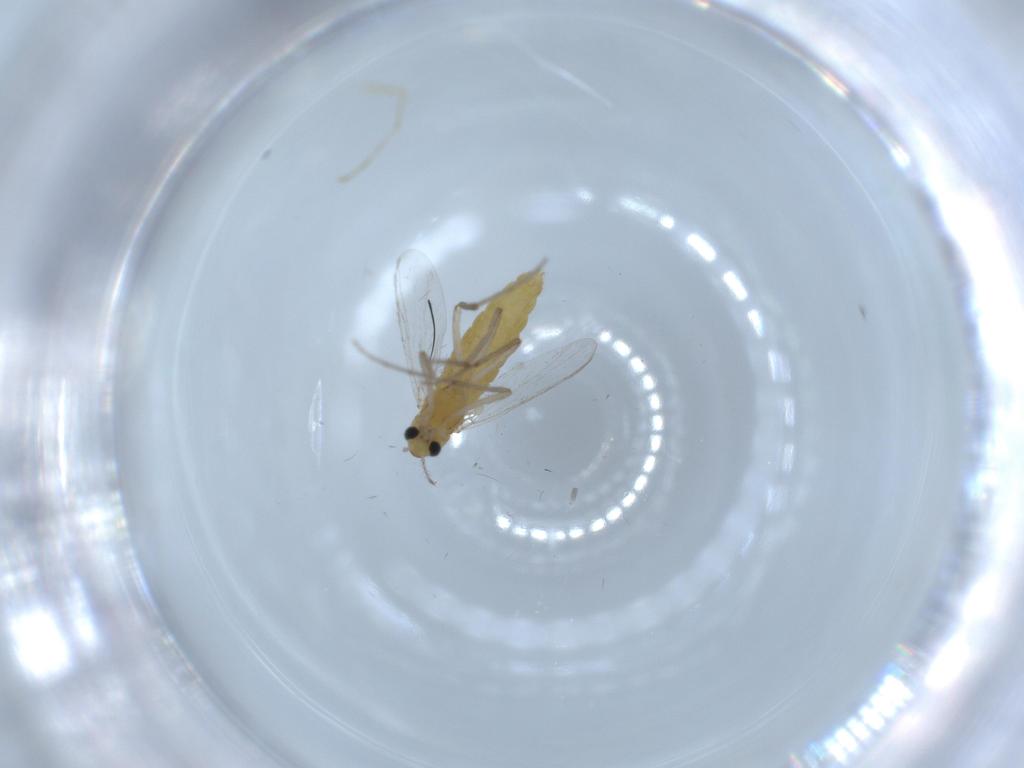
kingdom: Animalia
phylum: Arthropoda
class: Insecta
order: Diptera
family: Chironomidae
